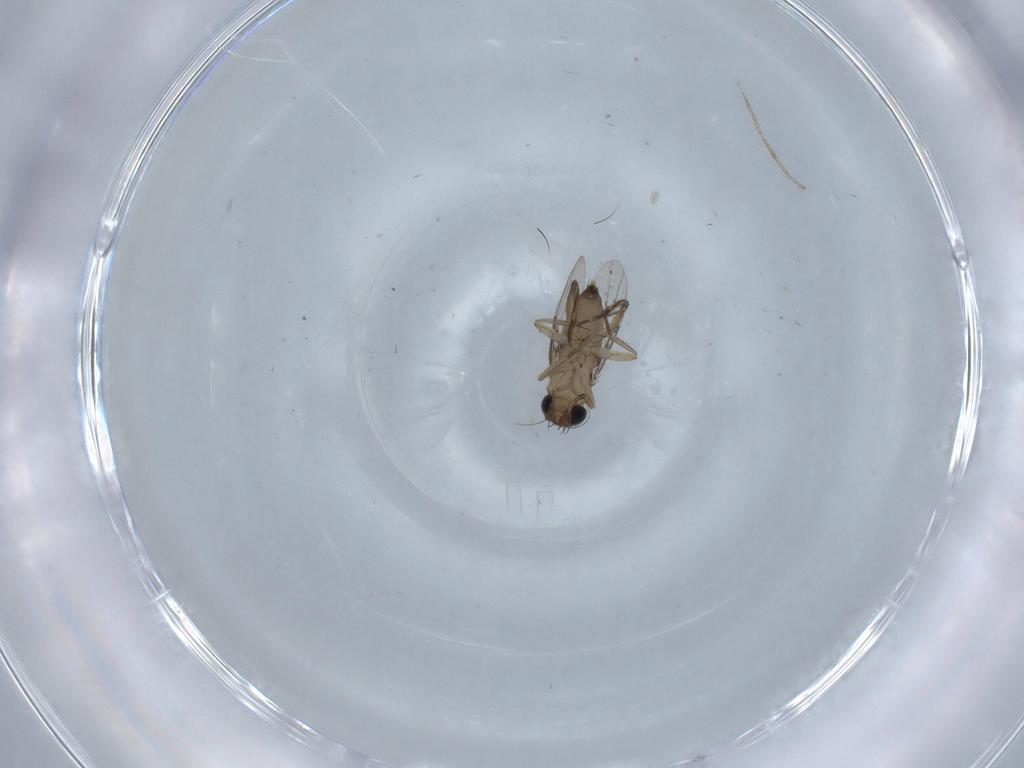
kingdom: Animalia
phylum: Arthropoda
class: Insecta
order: Diptera
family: Phoridae
